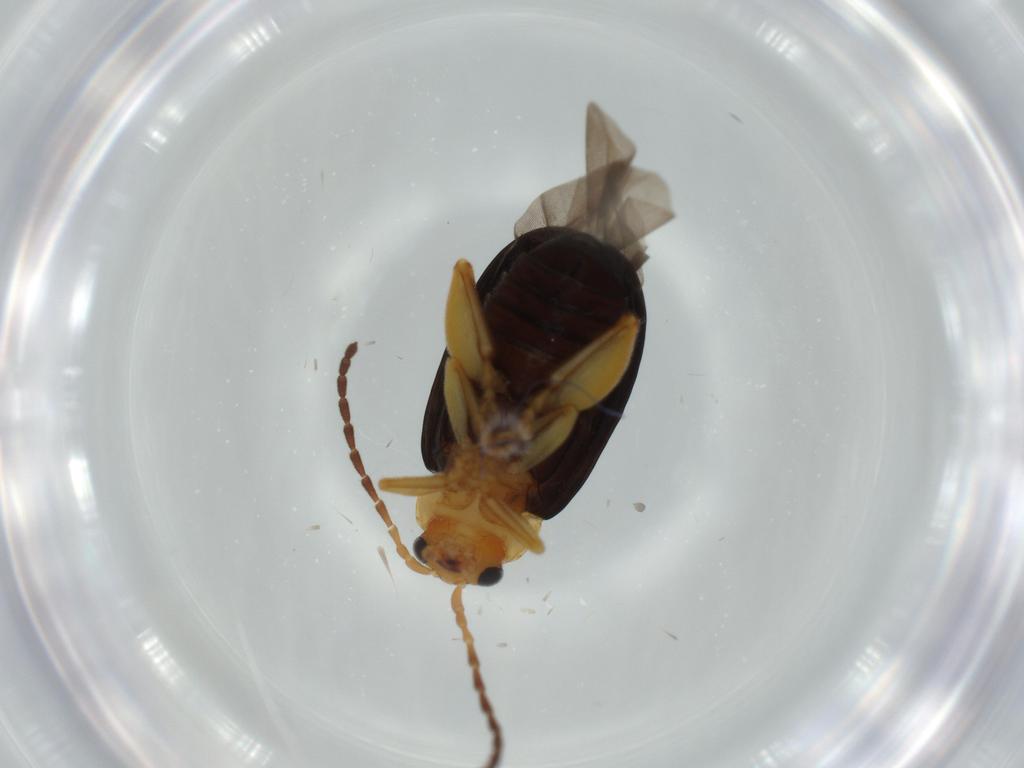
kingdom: Animalia
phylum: Arthropoda
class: Insecta
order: Coleoptera
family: Chrysomelidae
